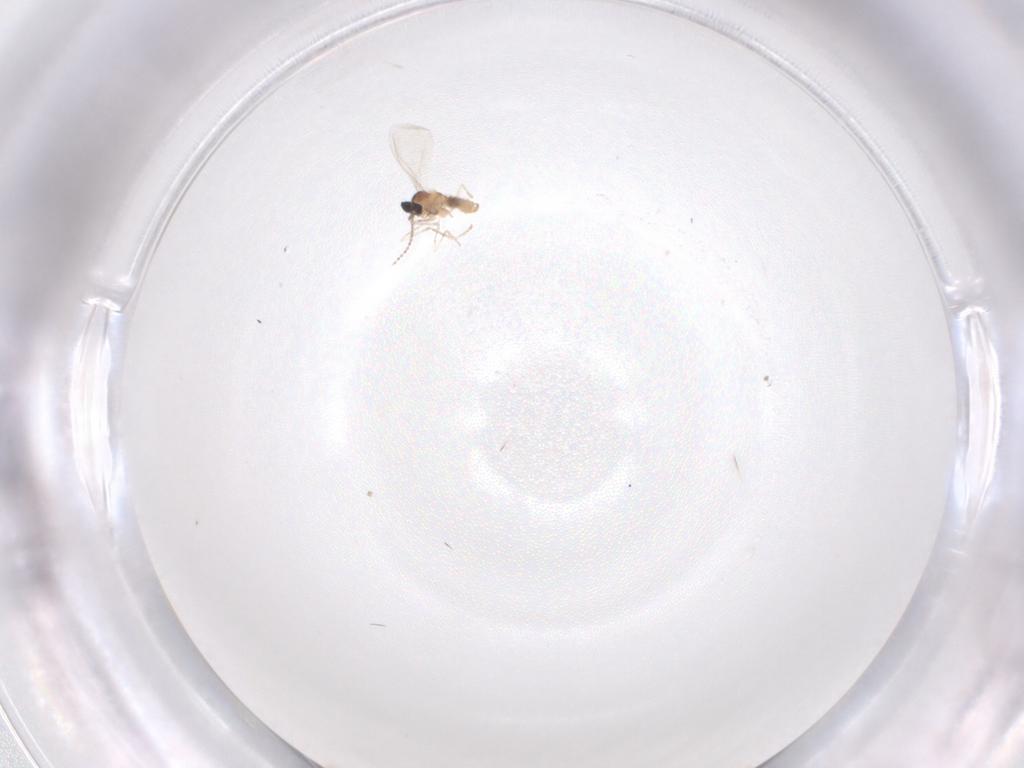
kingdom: Animalia
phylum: Arthropoda
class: Insecta
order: Diptera
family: Cecidomyiidae
